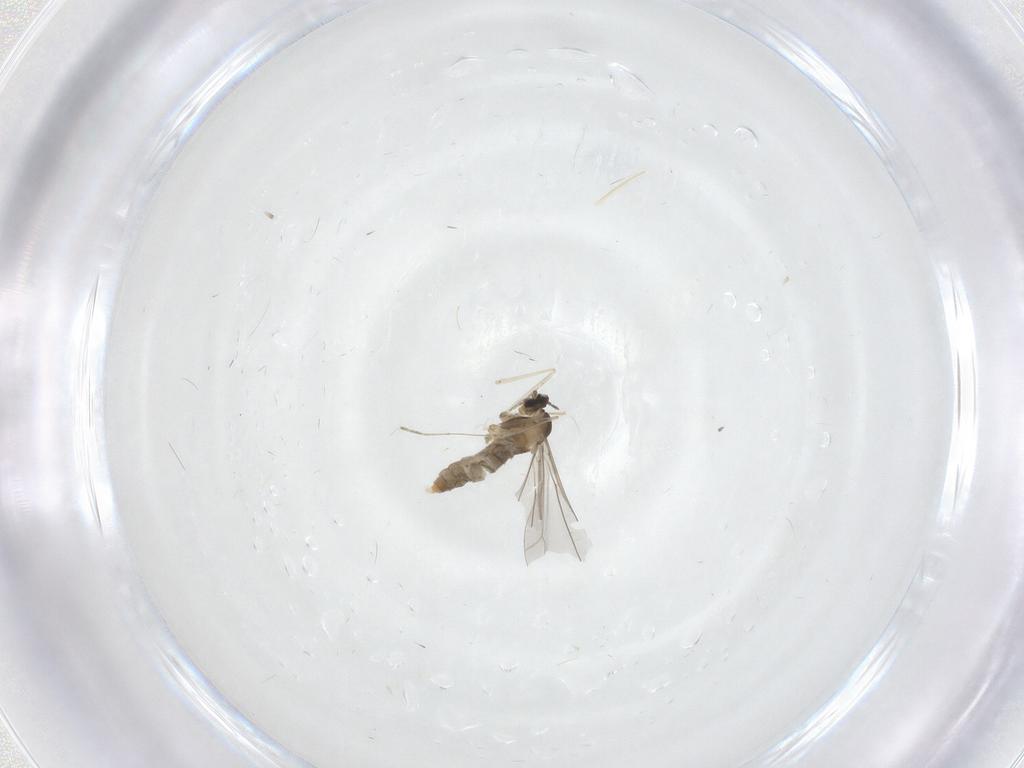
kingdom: Animalia
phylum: Arthropoda
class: Insecta
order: Diptera
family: Cecidomyiidae
